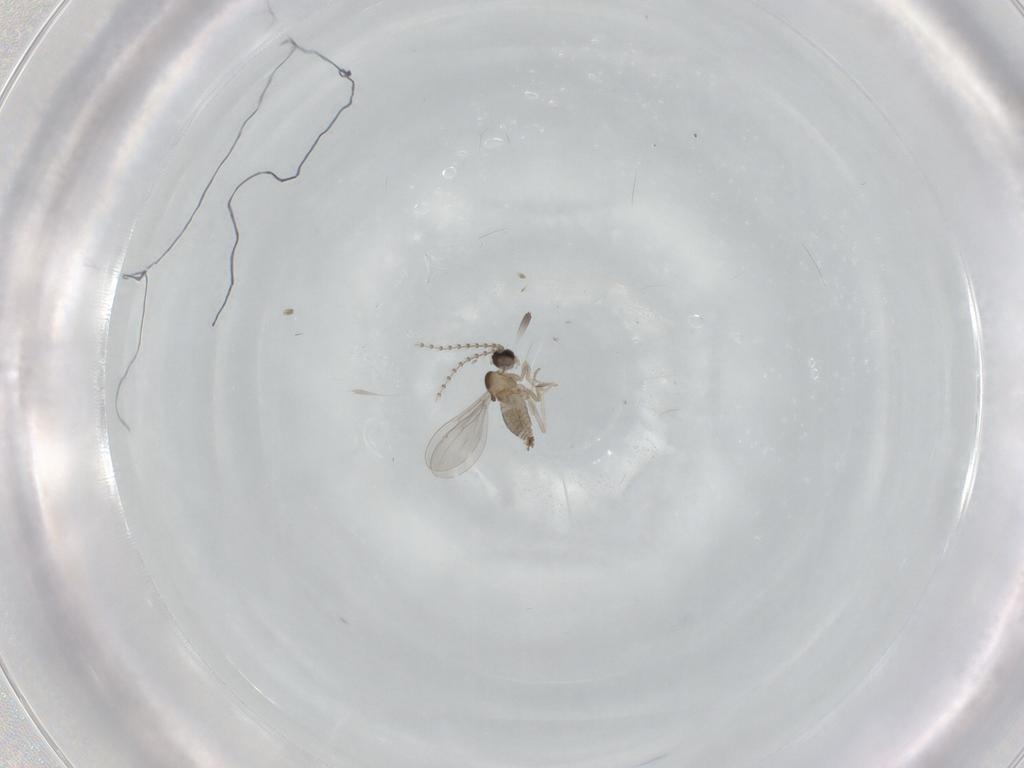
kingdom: Animalia
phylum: Arthropoda
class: Insecta
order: Diptera
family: Cecidomyiidae
